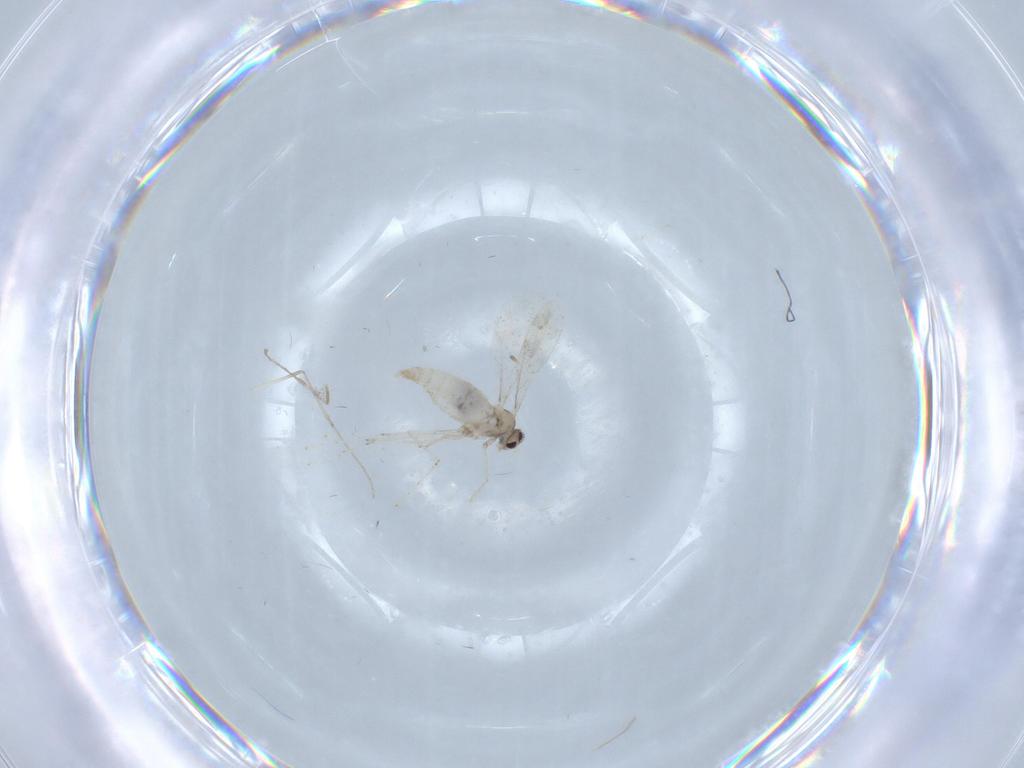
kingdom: Animalia
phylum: Arthropoda
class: Insecta
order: Diptera
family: Cecidomyiidae
